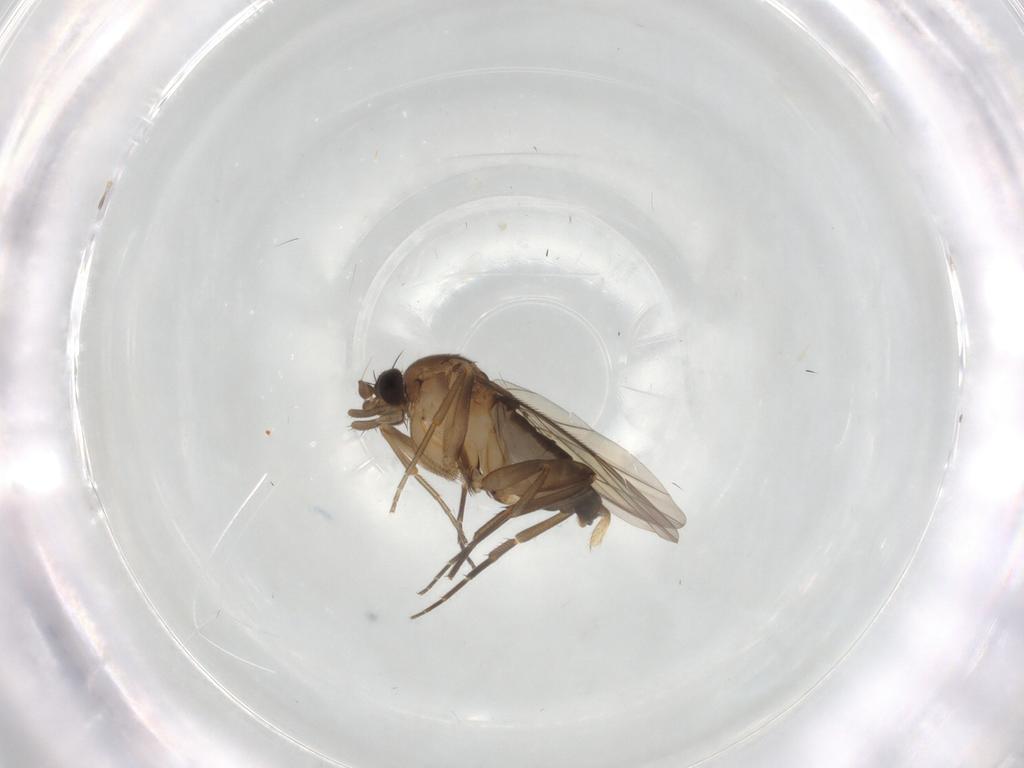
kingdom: Animalia
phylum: Arthropoda
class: Insecta
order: Diptera
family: Phoridae
